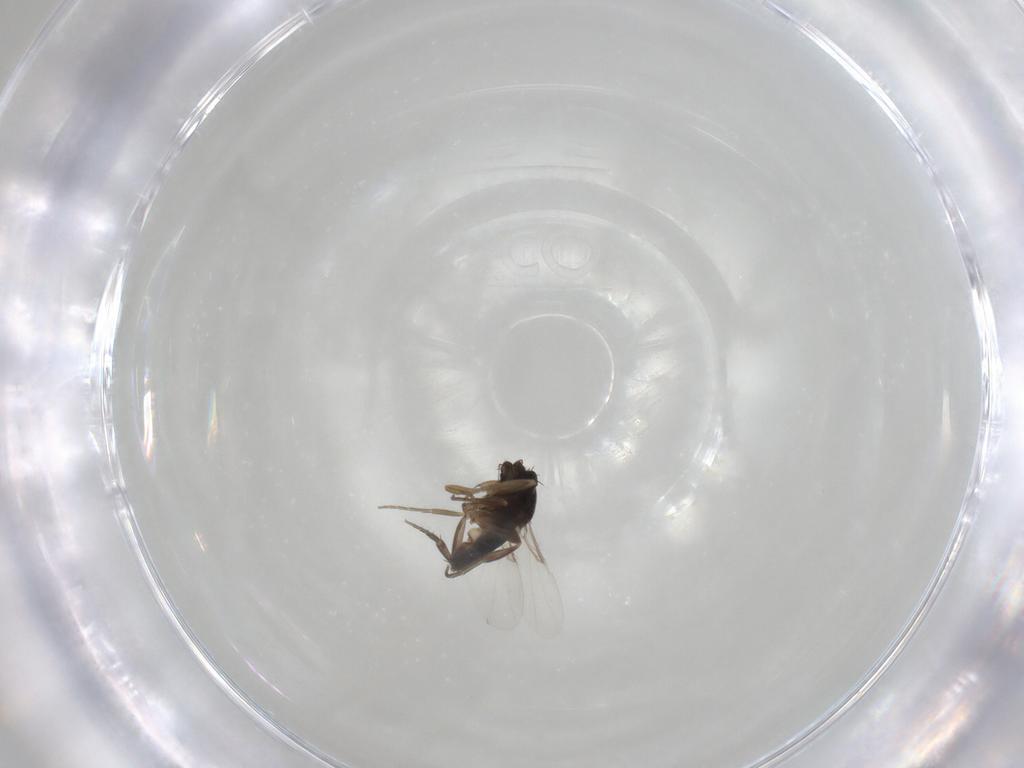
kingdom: Animalia
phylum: Arthropoda
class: Insecta
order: Diptera
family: Phoridae
